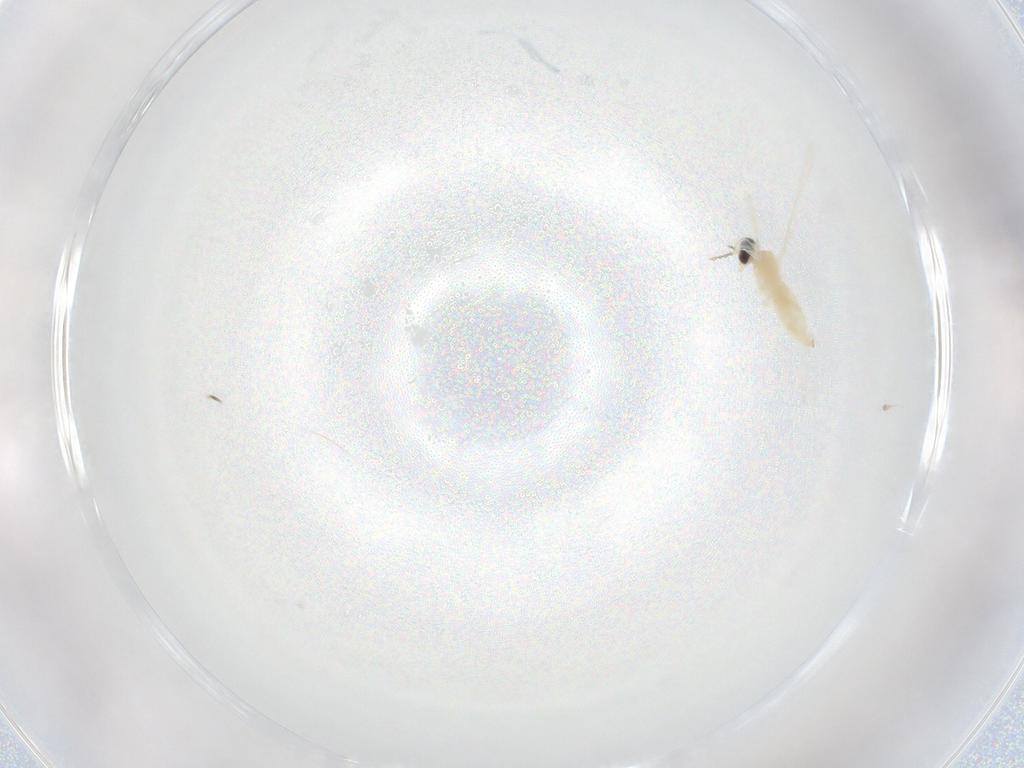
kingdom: Animalia
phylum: Arthropoda
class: Insecta
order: Diptera
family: Cecidomyiidae
